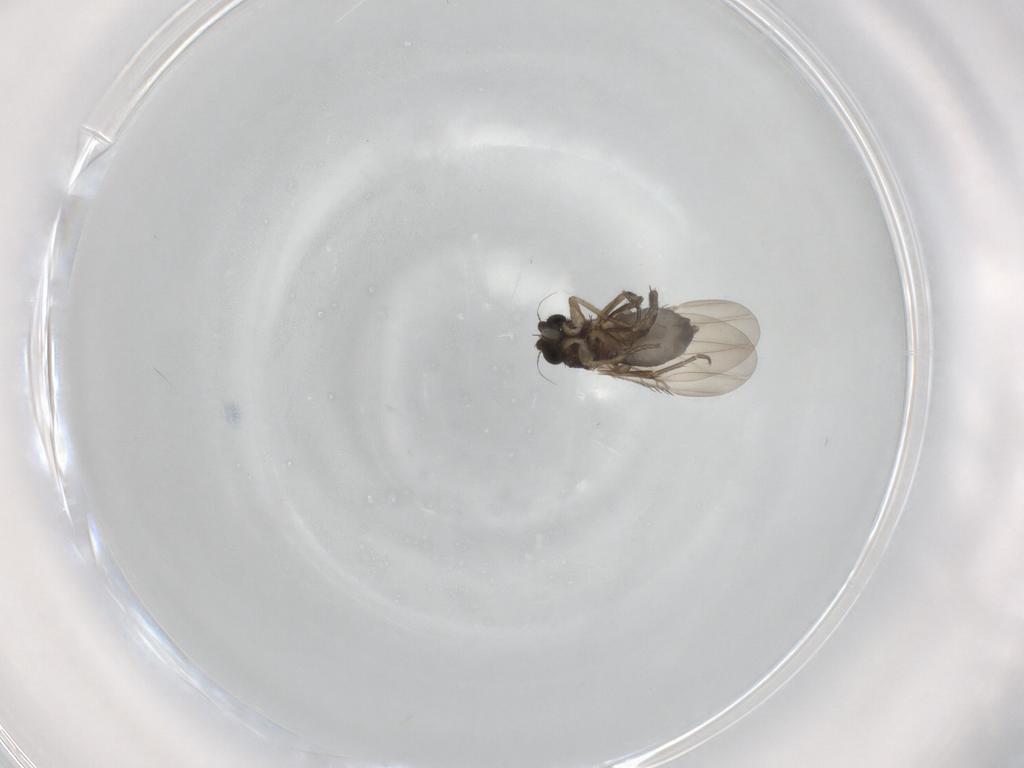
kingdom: Animalia
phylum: Arthropoda
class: Insecta
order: Diptera
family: Phoridae
